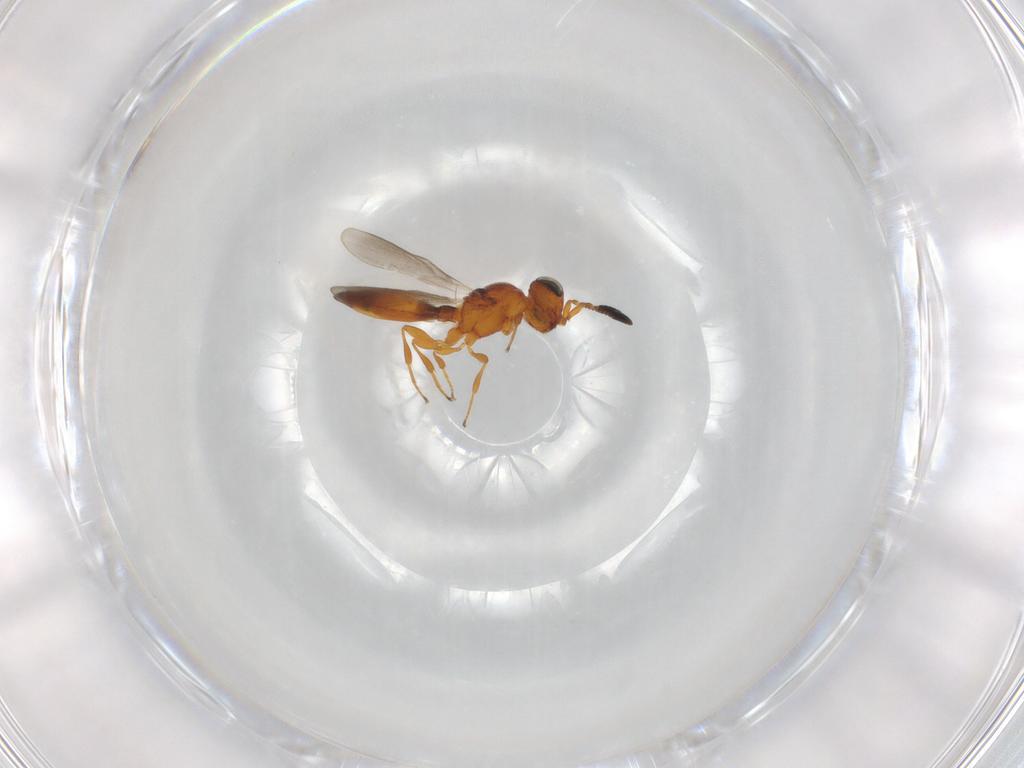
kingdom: Animalia
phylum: Arthropoda
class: Insecta
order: Hymenoptera
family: Scelionidae
